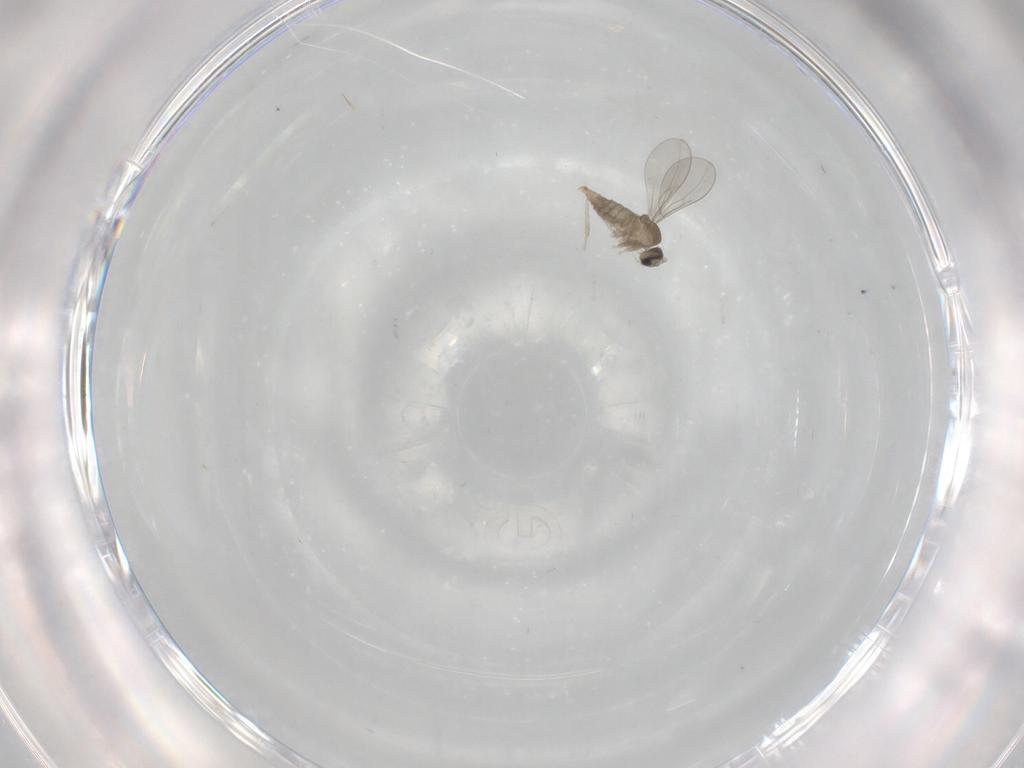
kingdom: Animalia
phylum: Arthropoda
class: Insecta
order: Diptera
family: Cecidomyiidae
